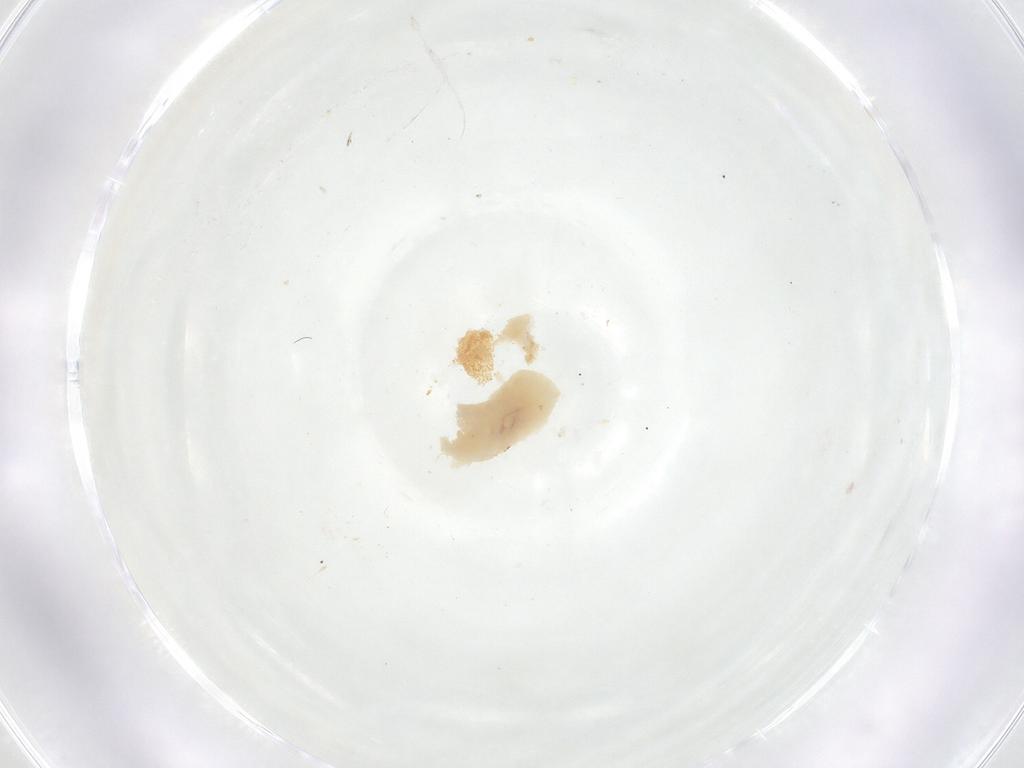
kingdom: Animalia
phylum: Arthropoda
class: Insecta
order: Diptera
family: Fergusoninidae
